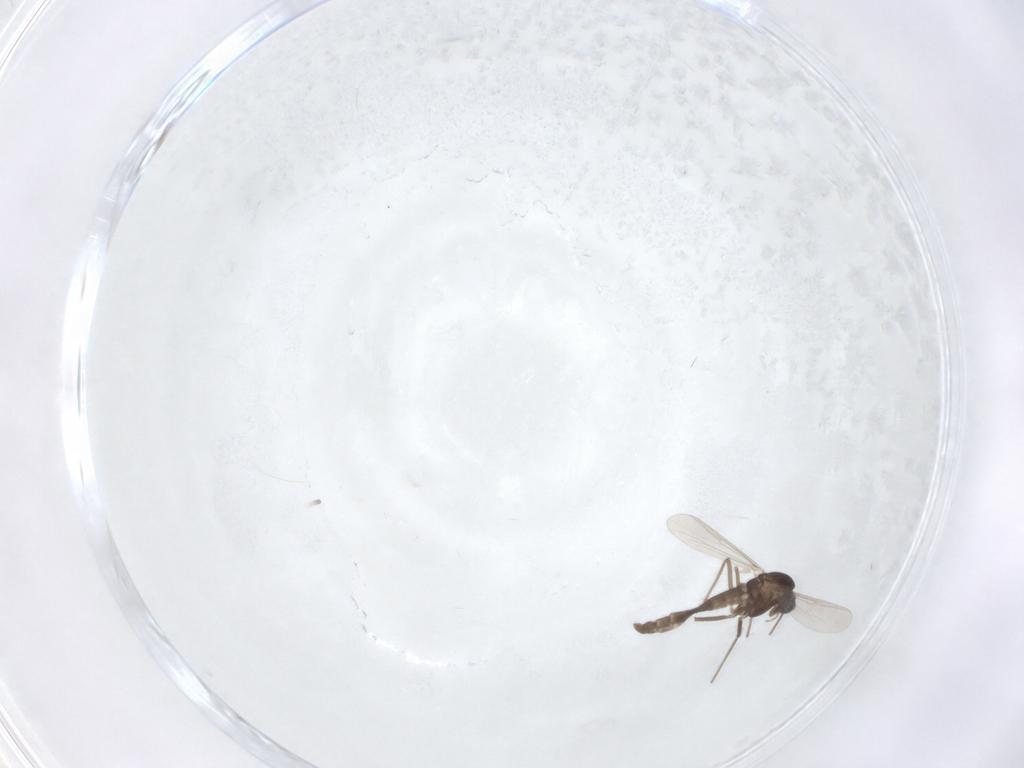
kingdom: Animalia
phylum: Arthropoda
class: Insecta
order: Diptera
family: Chironomidae
